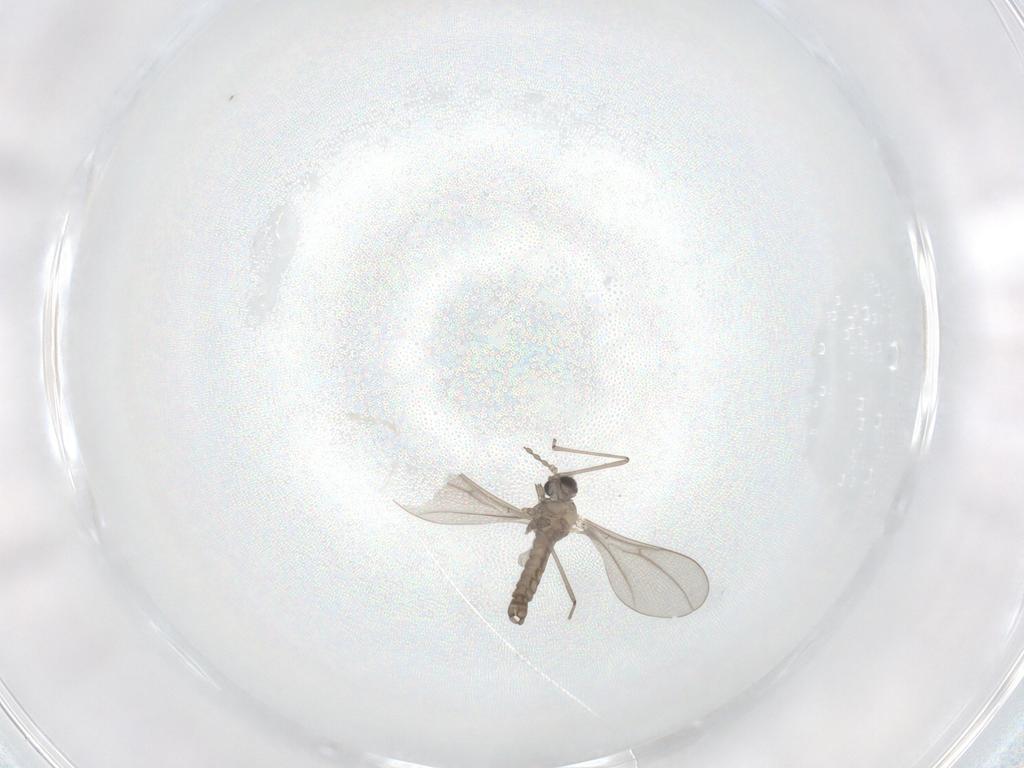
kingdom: Animalia
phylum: Arthropoda
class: Insecta
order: Diptera
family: Cecidomyiidae
